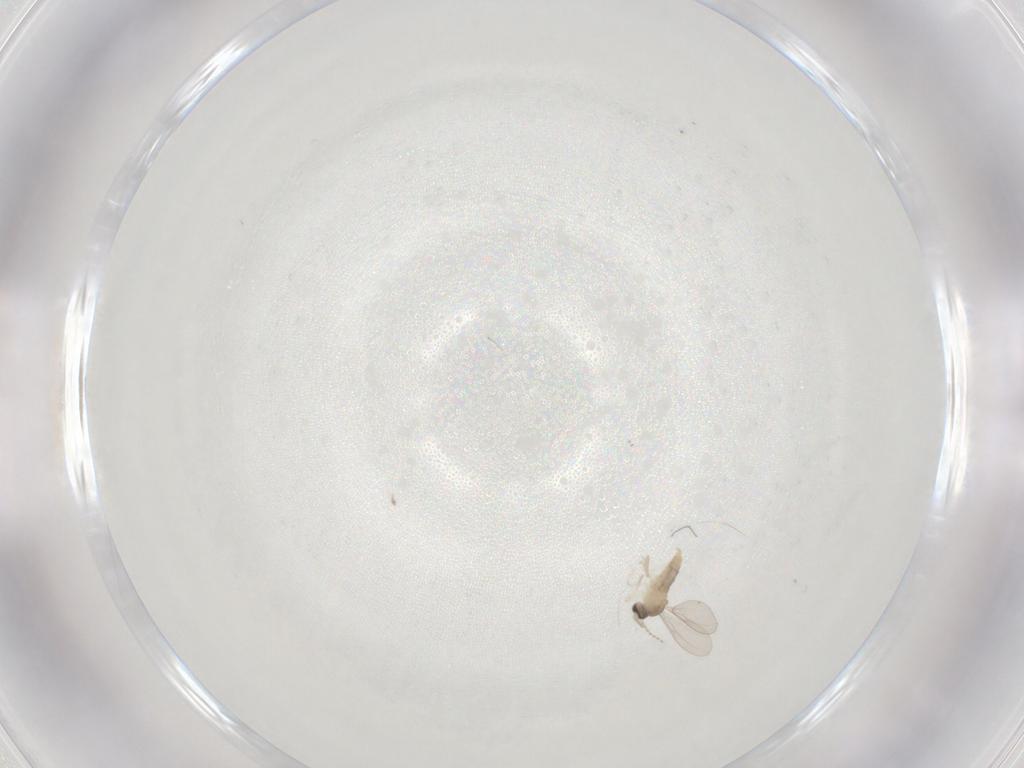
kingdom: Animalia
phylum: Arthropoda
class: Insecta
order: Diptera
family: Cecidomyiidae
